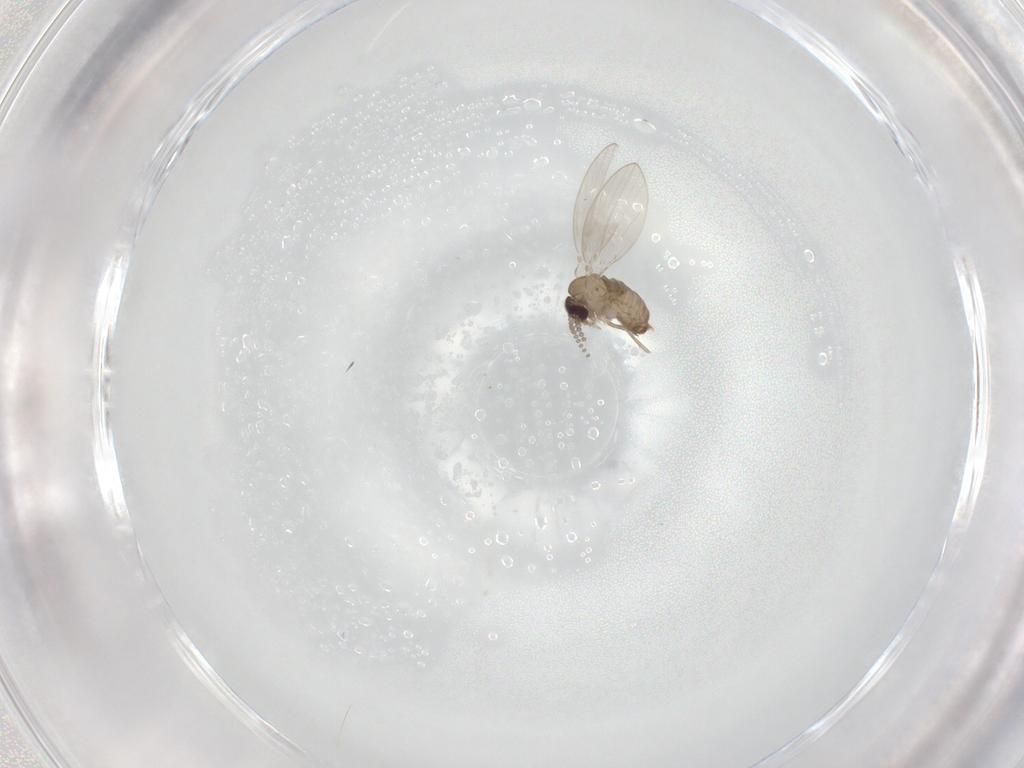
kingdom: Animalia
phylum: Arthropoda
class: Insecta
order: Diptera
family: Psychodidae
